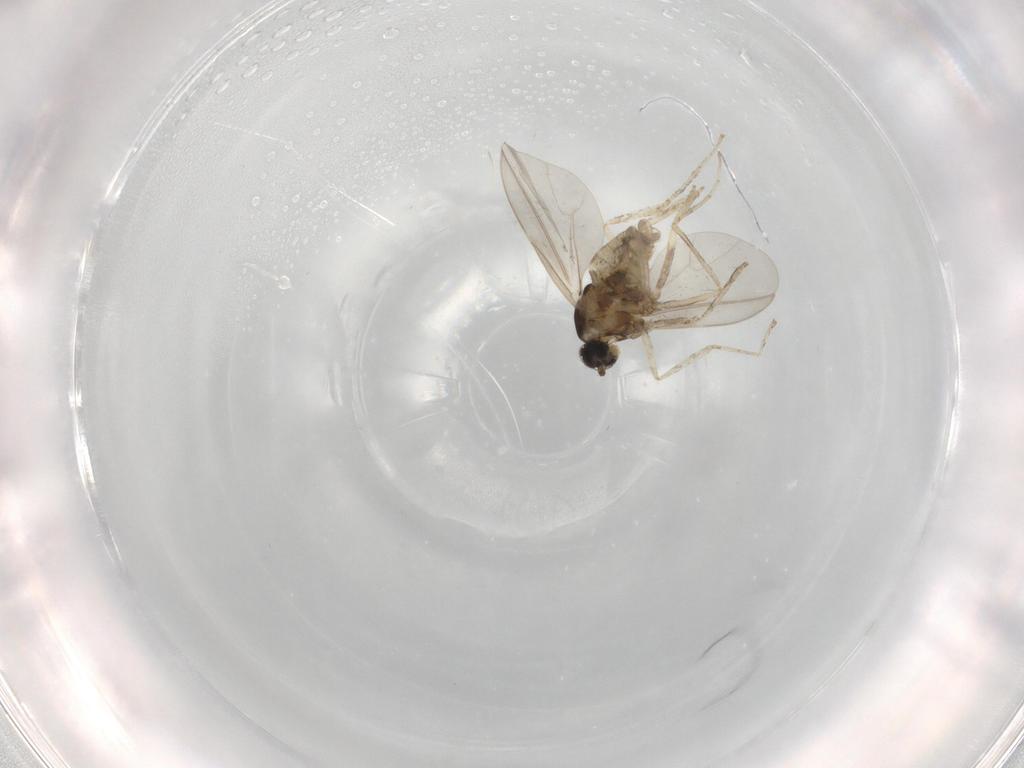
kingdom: Animalia
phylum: Arthropoda
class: Insecta
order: Diptera
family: Cecidomyiidae
